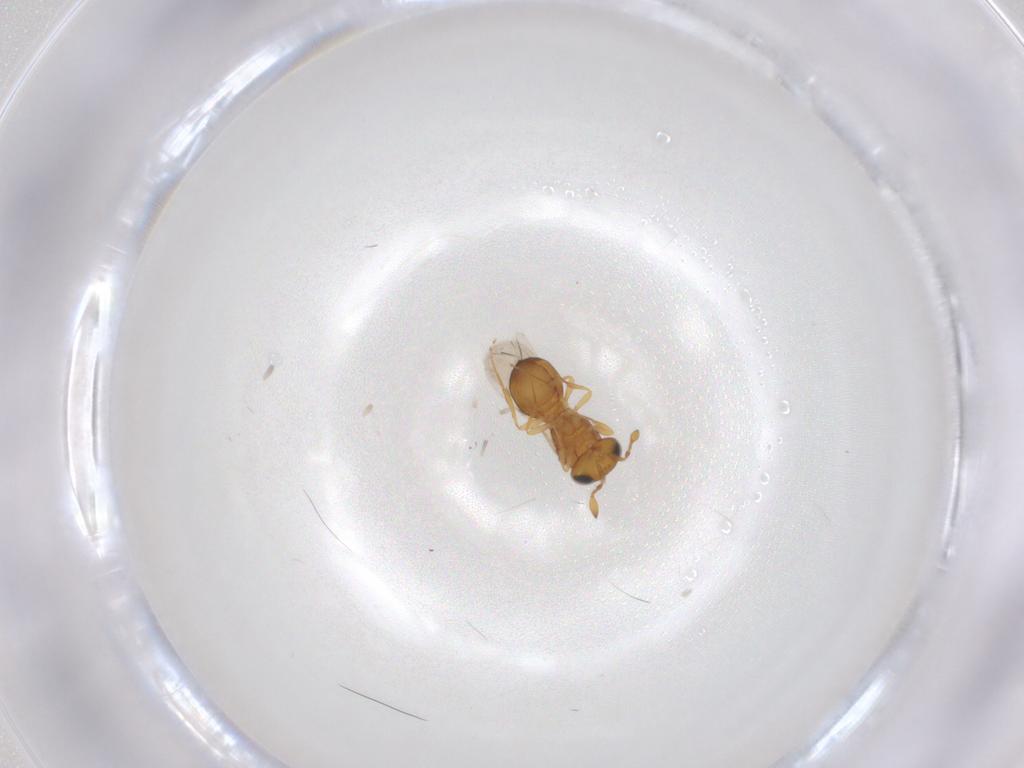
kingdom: Animalia
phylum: Arthropoda
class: Insecta
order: Hymenoptera
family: Scelionidae
